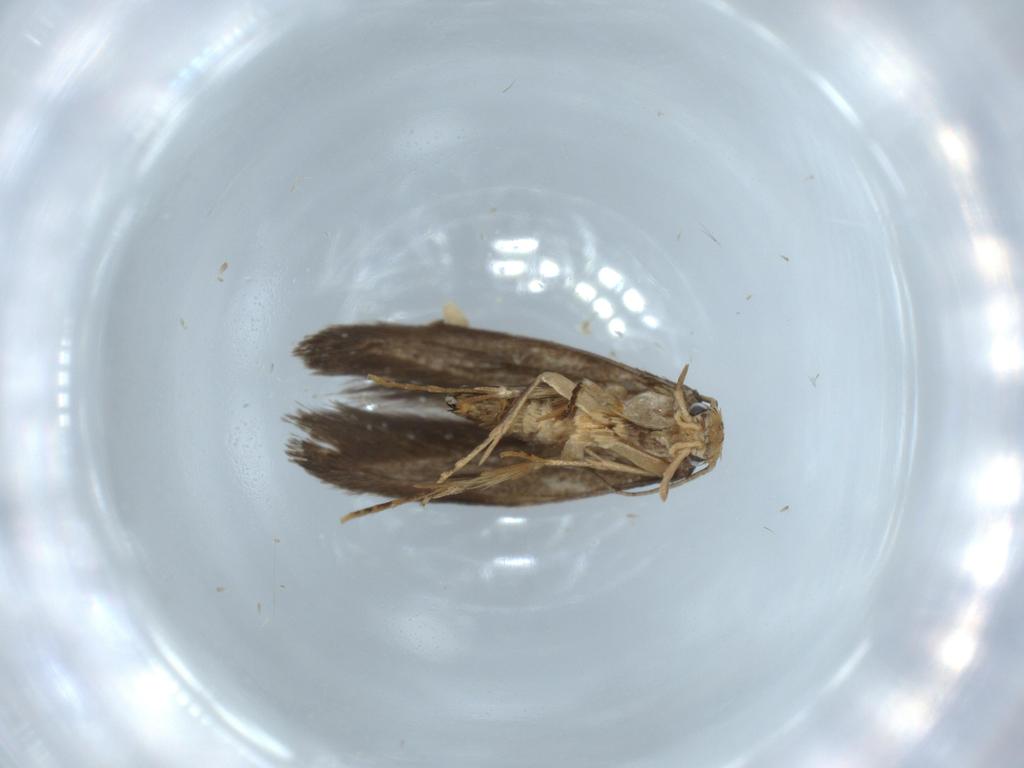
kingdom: Animalia
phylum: Arthropoda
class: Insecta
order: Lepidoptera
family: Tineidae
